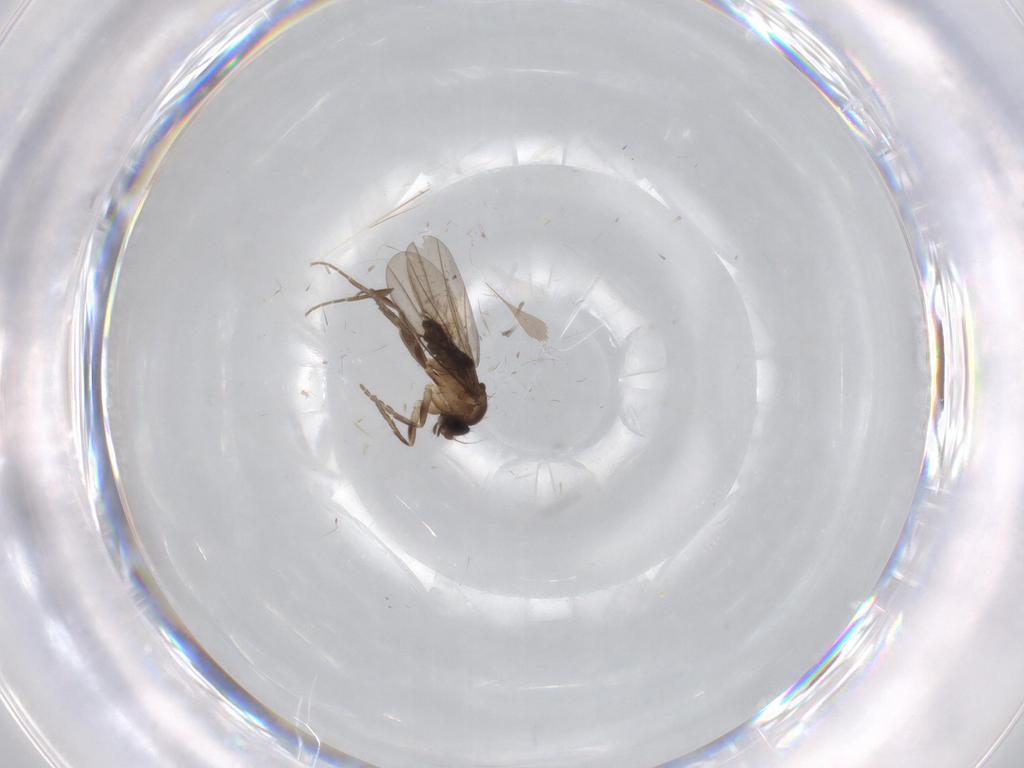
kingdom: Animalia
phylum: Arthropoda
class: Insecta
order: Diptera
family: Phoridae
